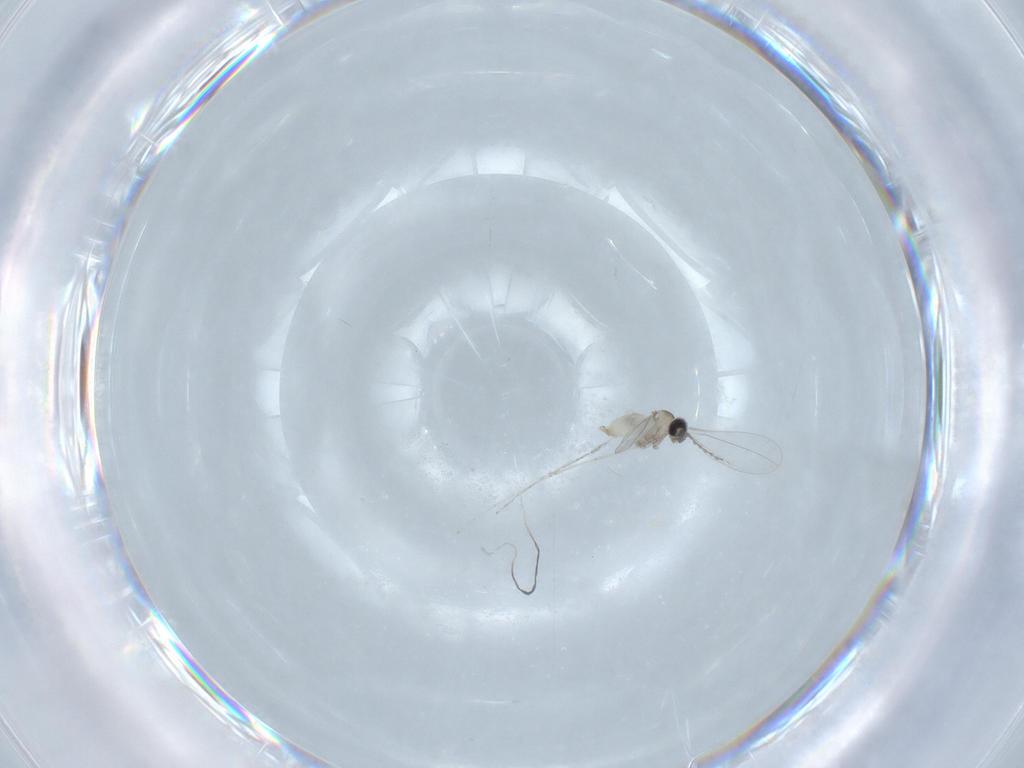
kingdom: Animalia
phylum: Arthropoda
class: Insecta
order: Diptera
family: Cecidomyiidae
